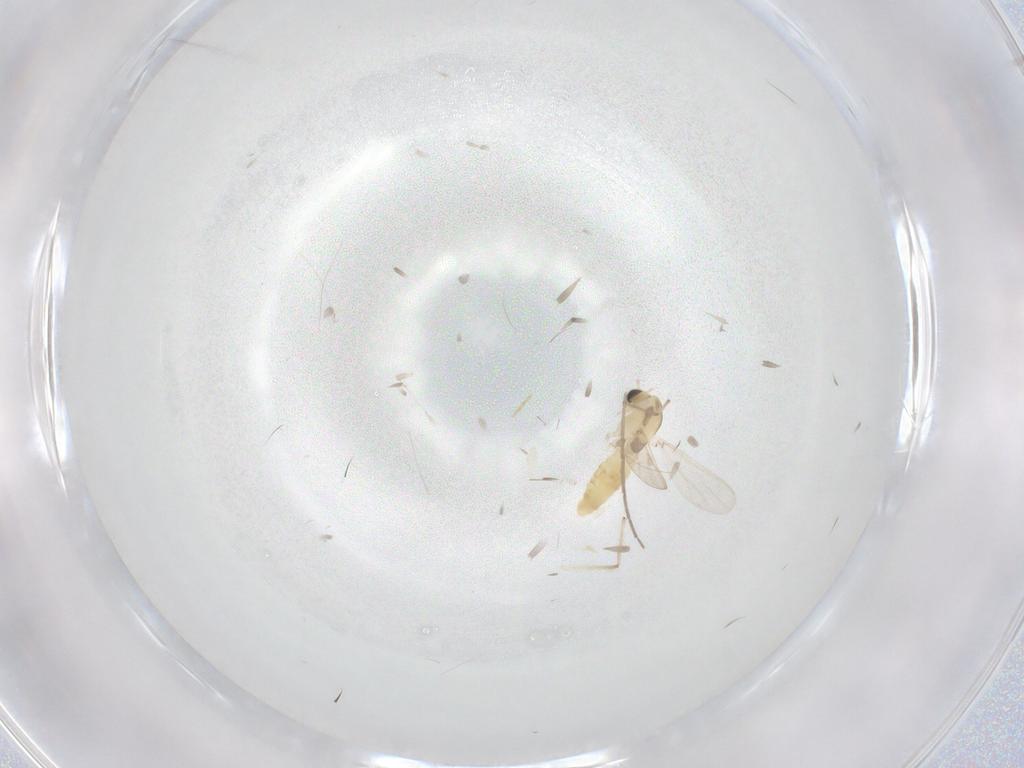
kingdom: Animalia
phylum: Arthropoda
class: Insecta
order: Diptera
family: Chironomidae
